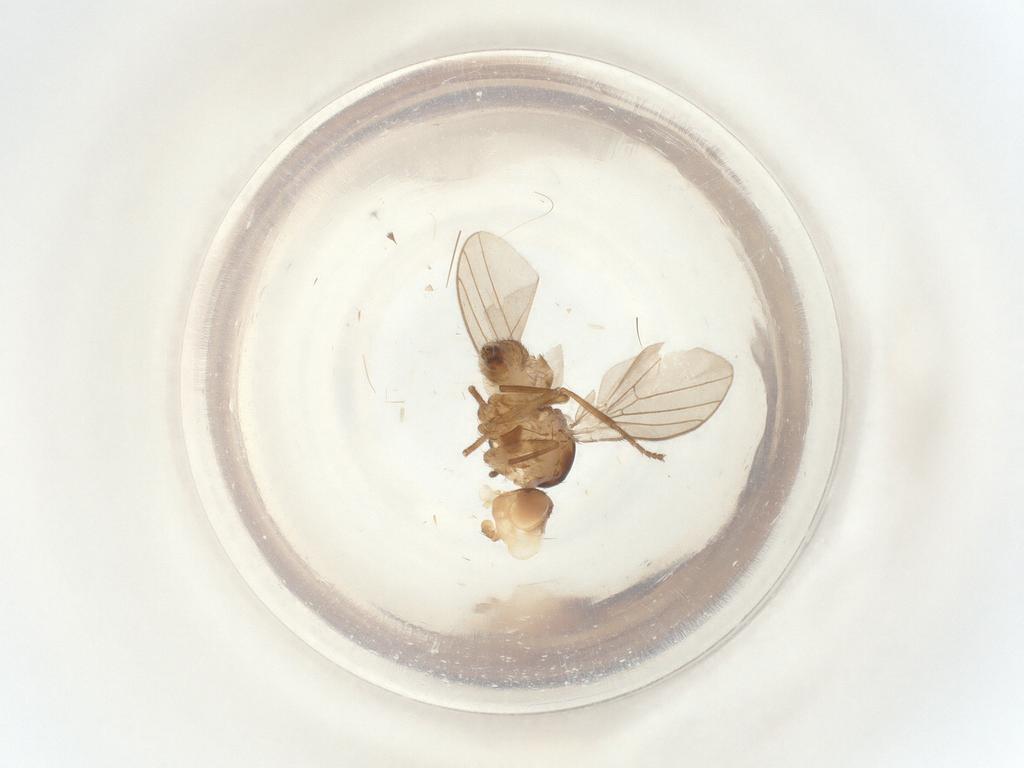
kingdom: Animalia
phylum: Arthropoda
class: Insecta
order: Diptera
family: Agromyzidae
